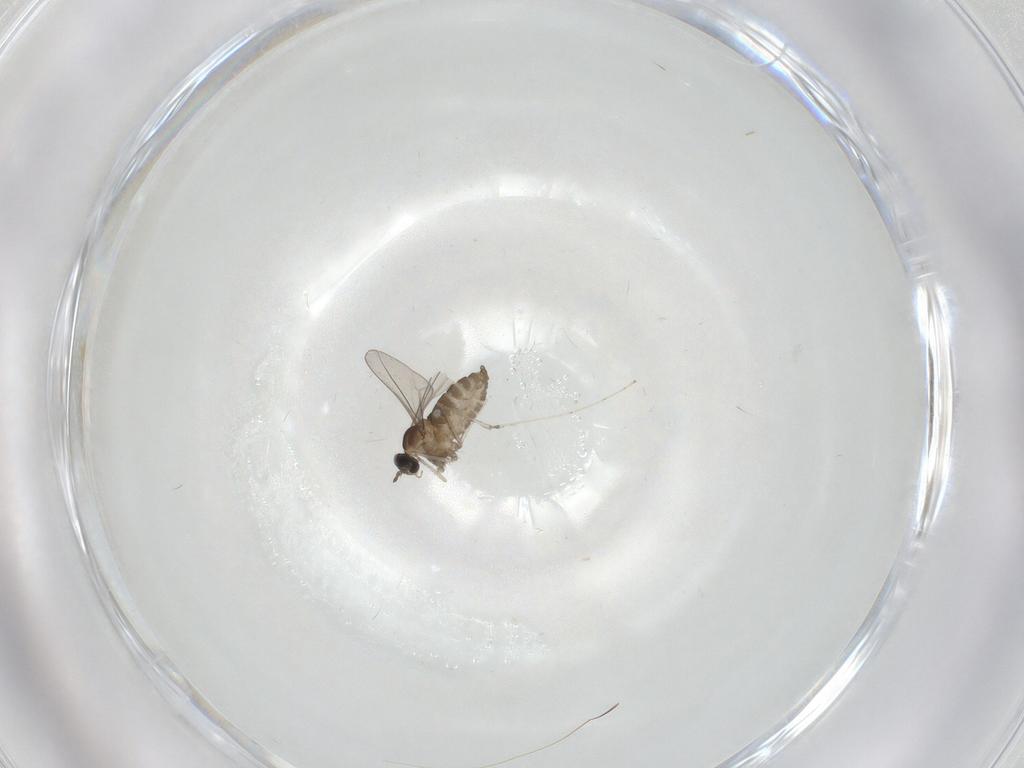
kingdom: Animalia
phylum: Arthropoda
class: Insecta
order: Diptera
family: Cecidomyiidae
